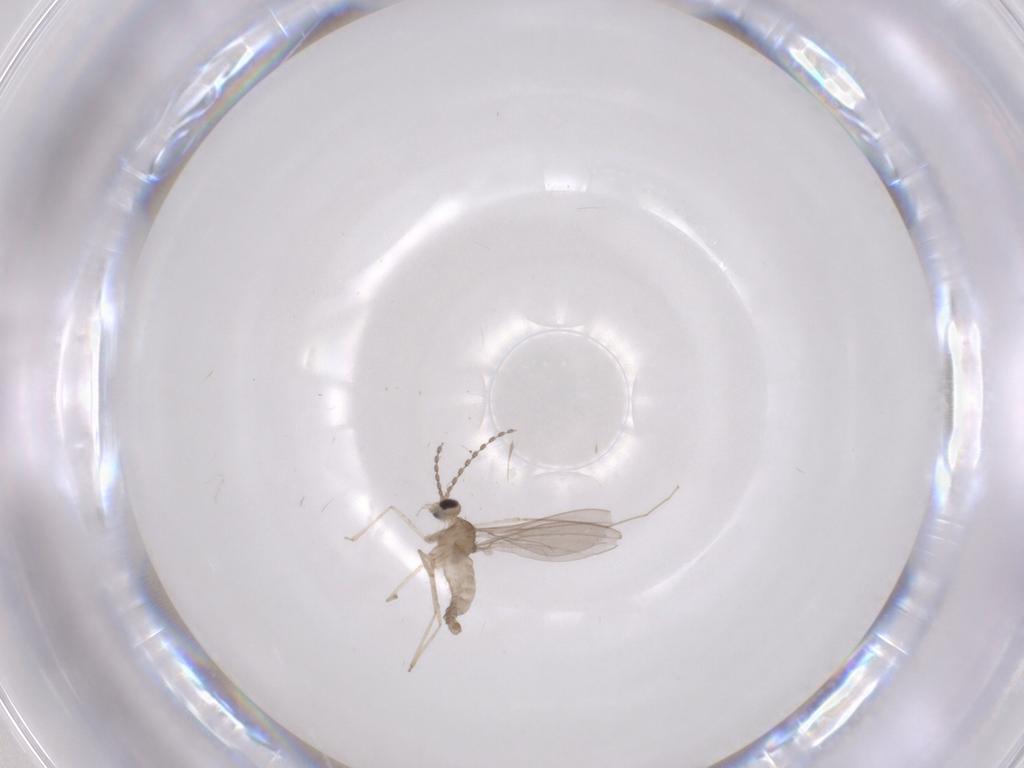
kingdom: Animalia
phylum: Arthropoda
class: Insecta
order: Diptera
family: Cecidomyiidae
